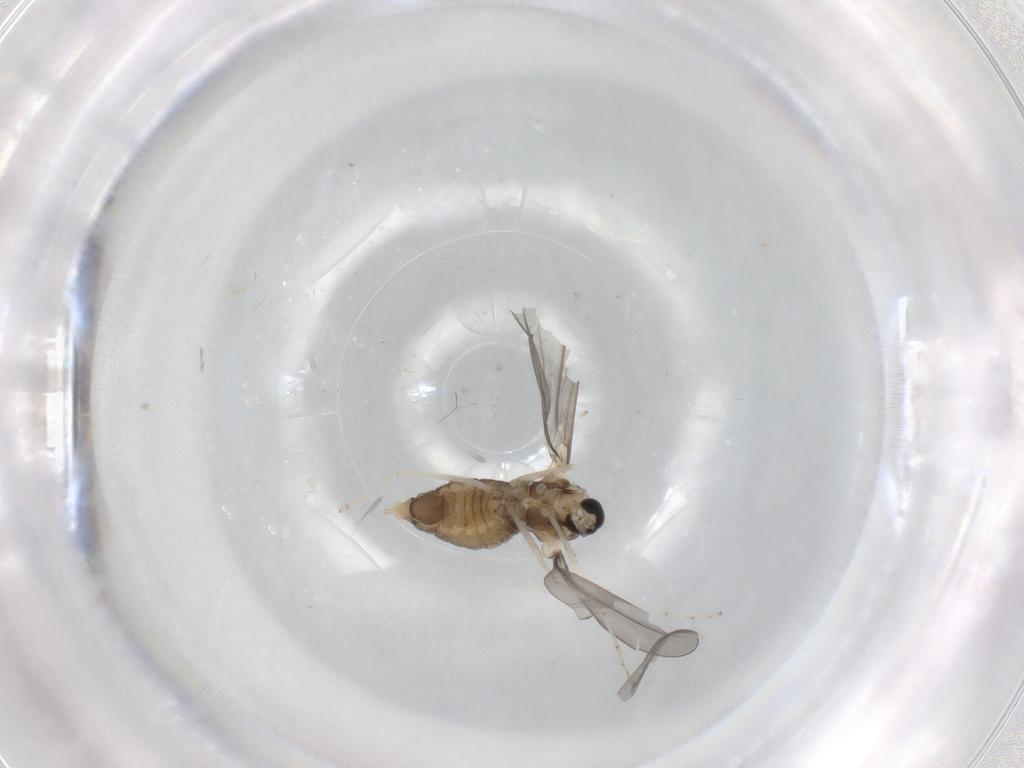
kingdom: Animalia
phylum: Arthropoda
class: Insecta
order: Diptera
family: Cecidomyiidae
